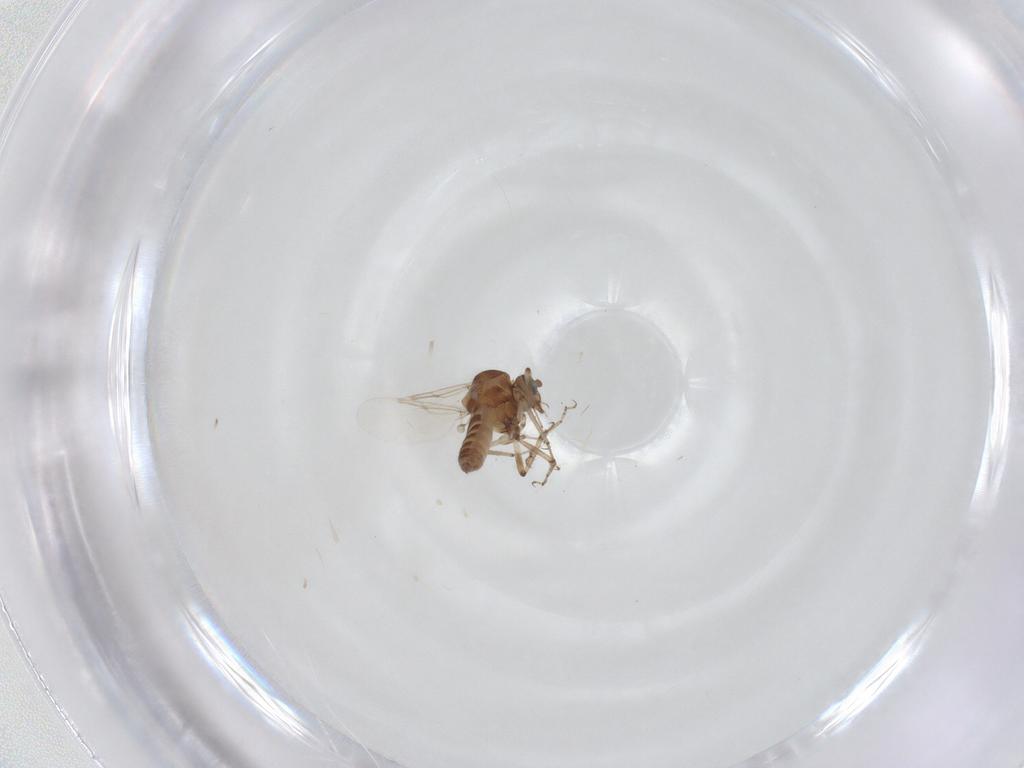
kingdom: Animalia
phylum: Arthropoda
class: Insecta
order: Diptera
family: Ceratopogonidae
